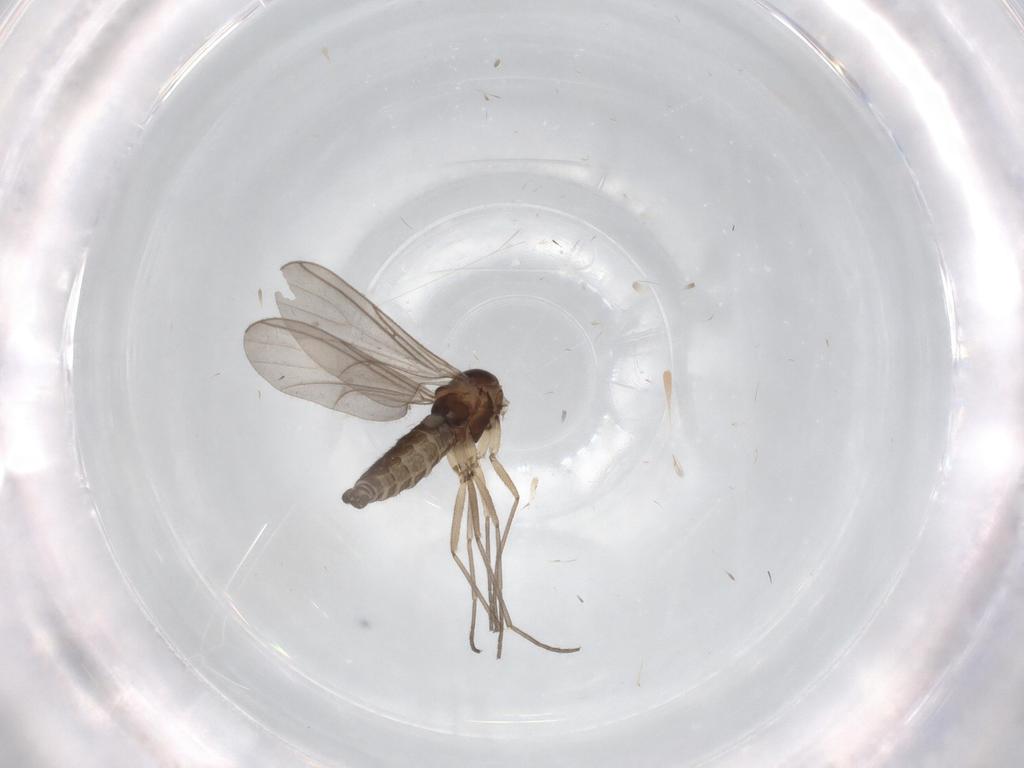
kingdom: Animalia
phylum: Arthropoda
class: Insecta
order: Diptera
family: Sciaridae
